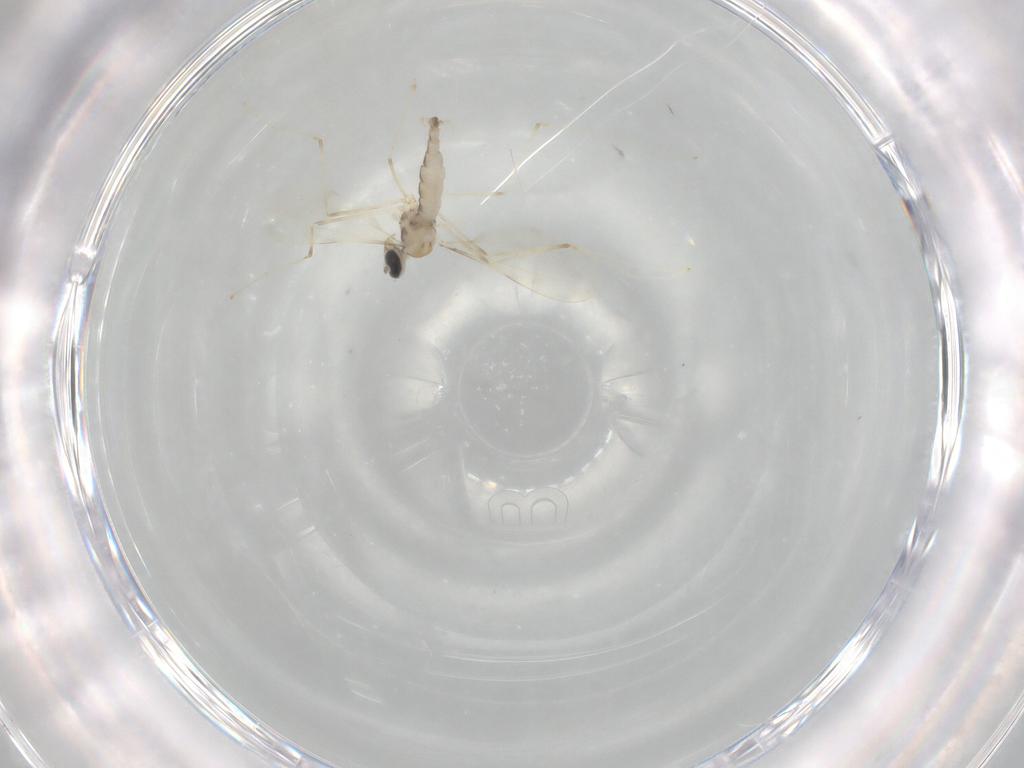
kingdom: Animalia
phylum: Arthropoda
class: Insecta
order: Diptera
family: Cecidomyiidae
